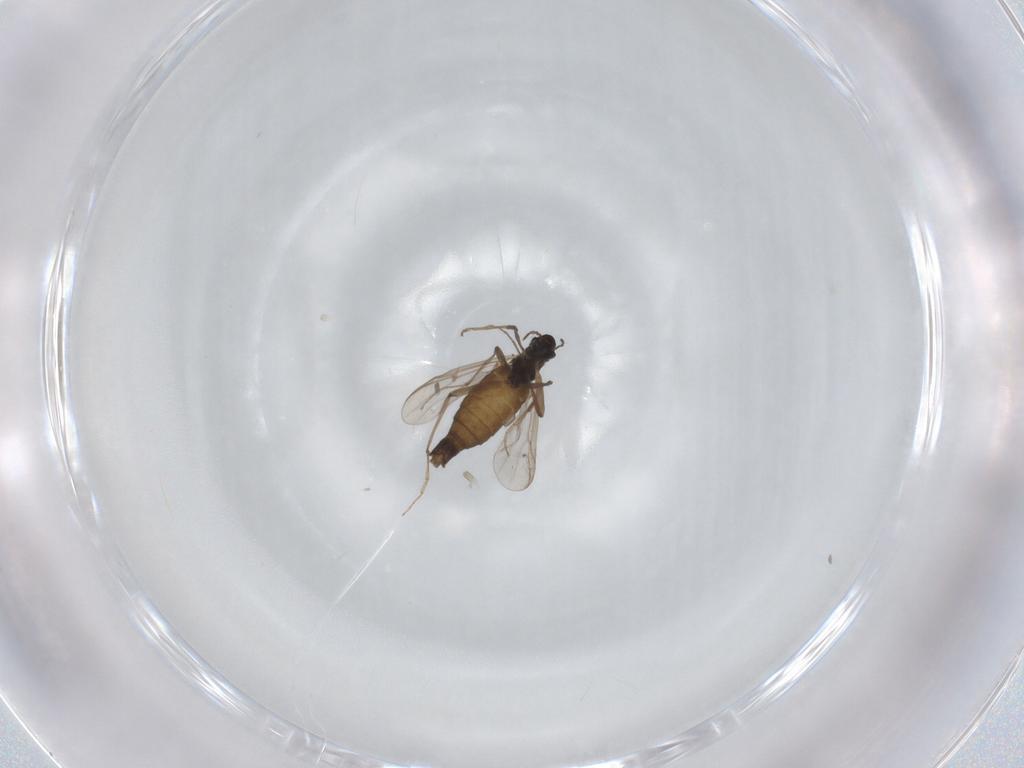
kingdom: Animalia
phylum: Arthropoda
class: Insecta
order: Diptera
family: Chironomidae
